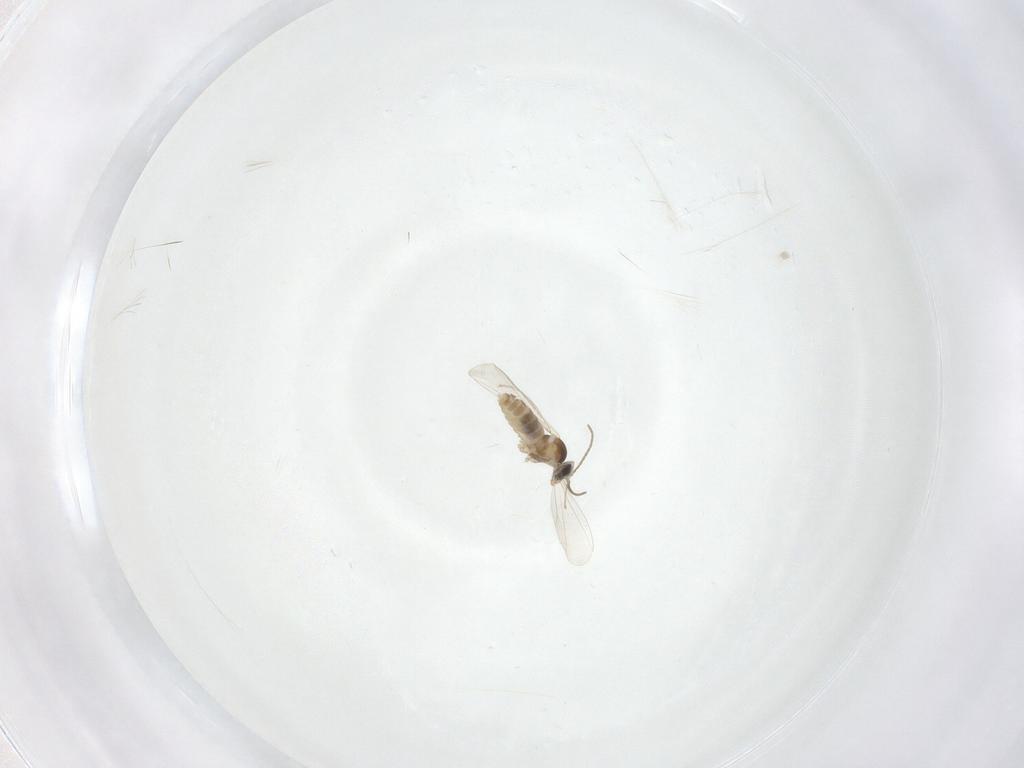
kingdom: Animalia
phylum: Arthropoda
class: Insecta
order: Diptera
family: Cecidomyiidae
